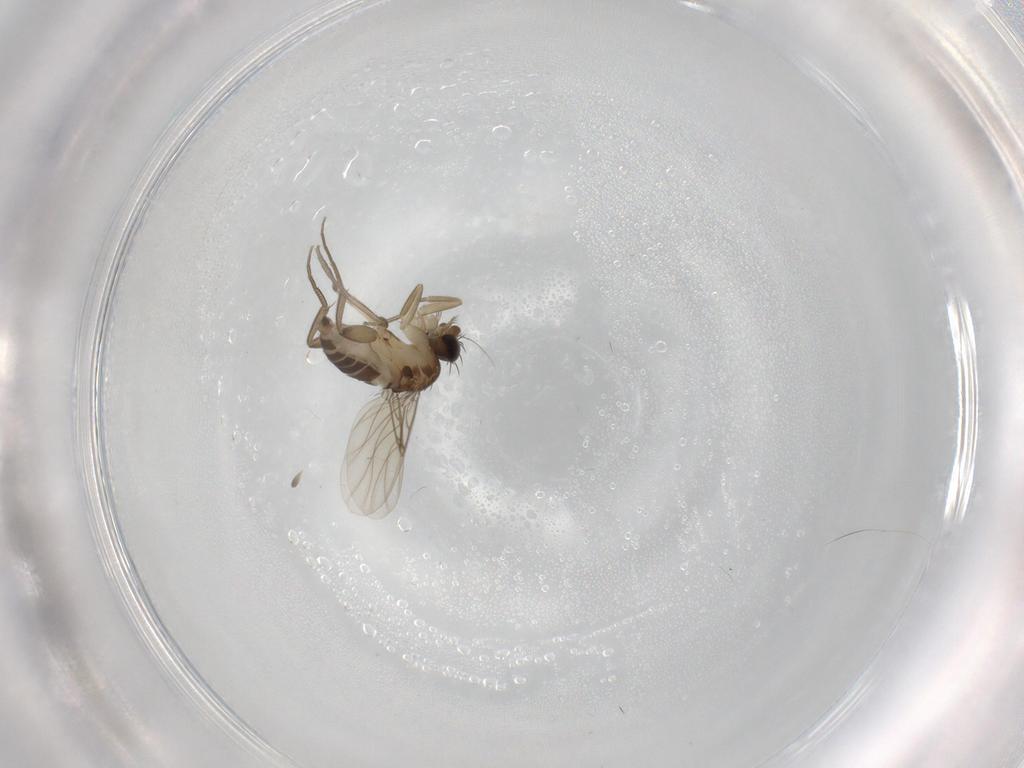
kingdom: Animalia
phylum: Arthropoda
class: Insecta
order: Diptera
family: Phoridae
